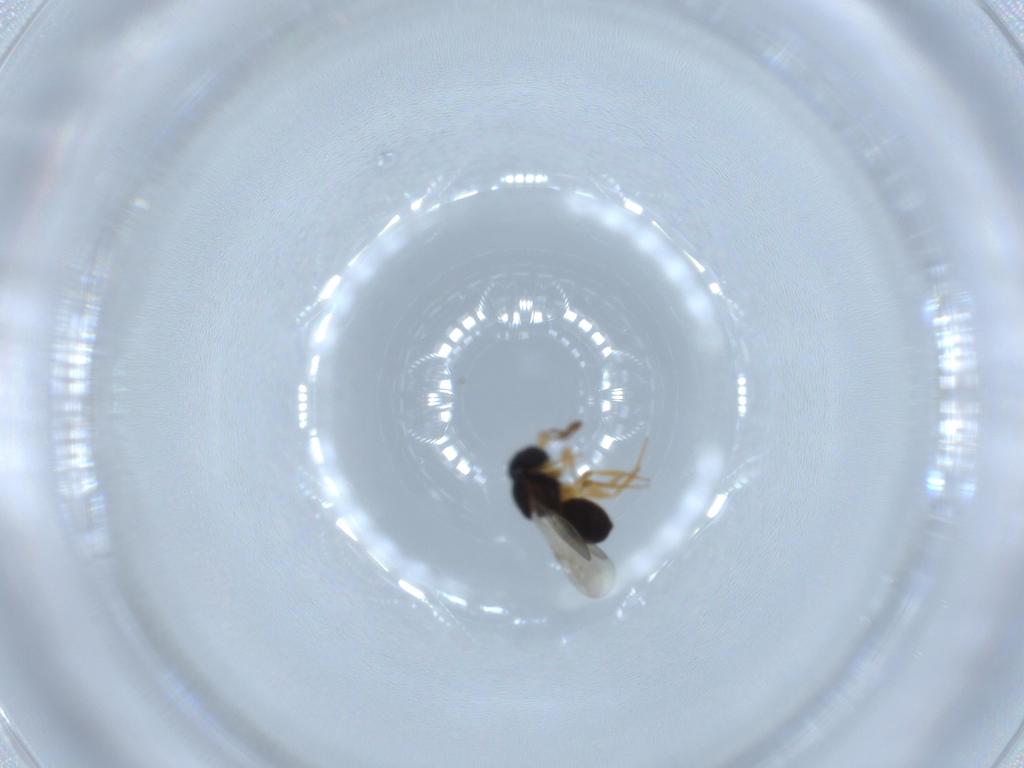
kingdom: Animalia
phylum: Arthropoda
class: Insecta
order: Hymenoptera
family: Scelionidae
